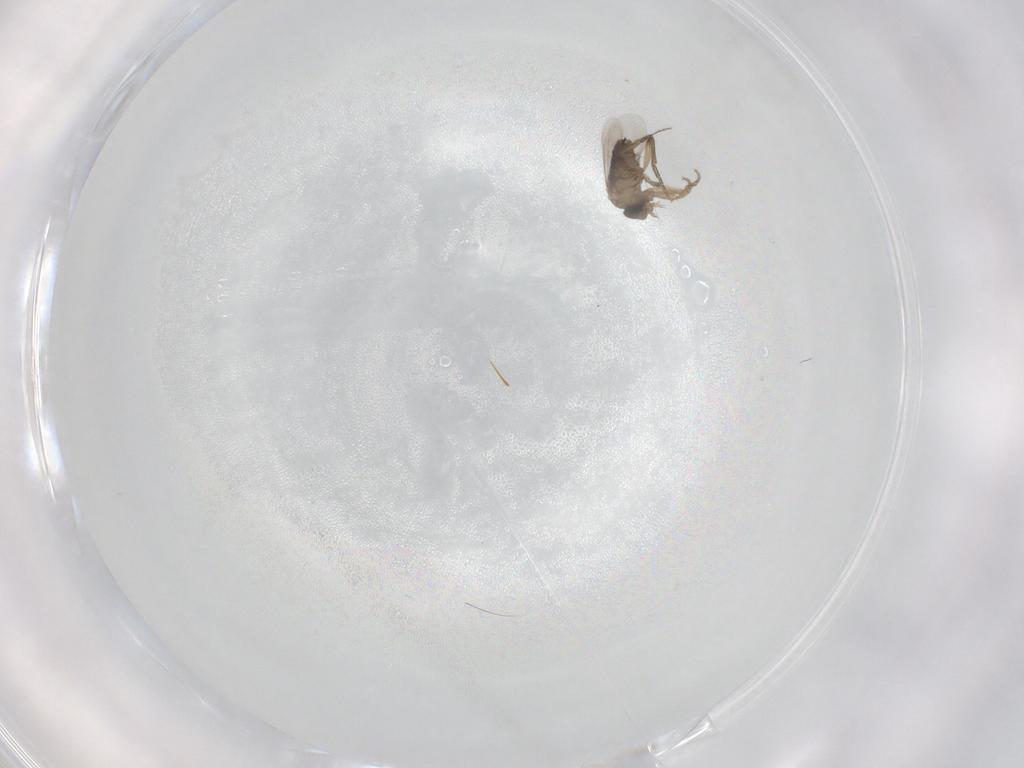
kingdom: Animalia
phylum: Arthropoda
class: Insecta
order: Diptera
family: Phoridae
